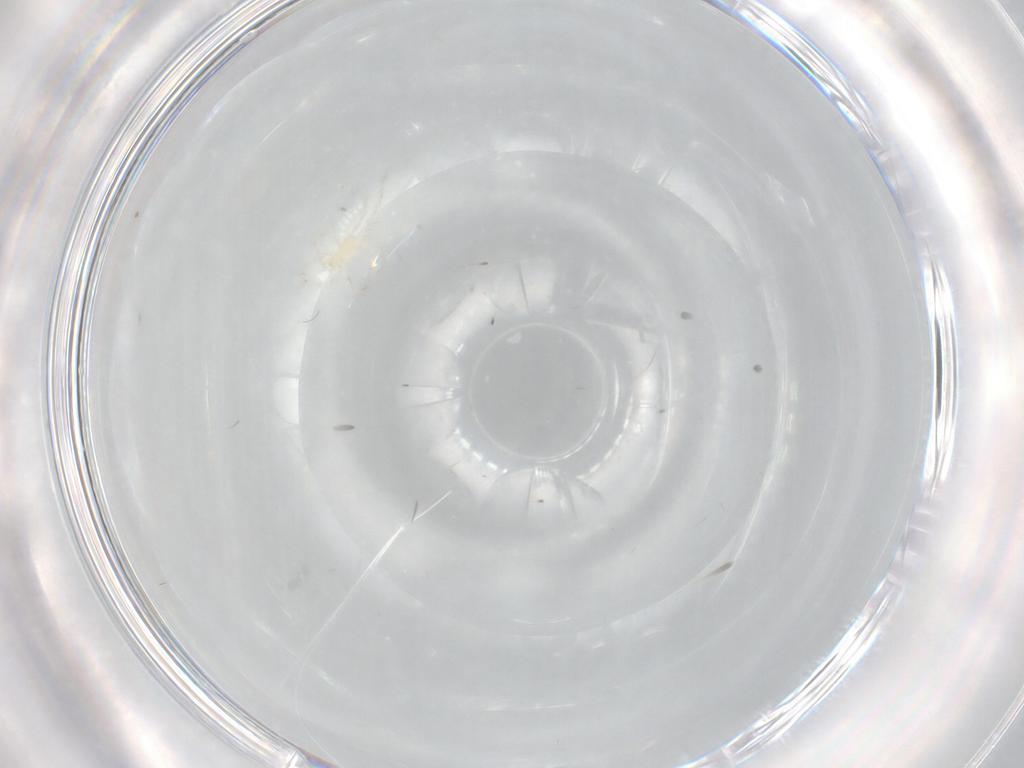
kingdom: Animalia
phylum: Arthropoda
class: Arachnida
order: Trombidiformes
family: Erythraeidae
